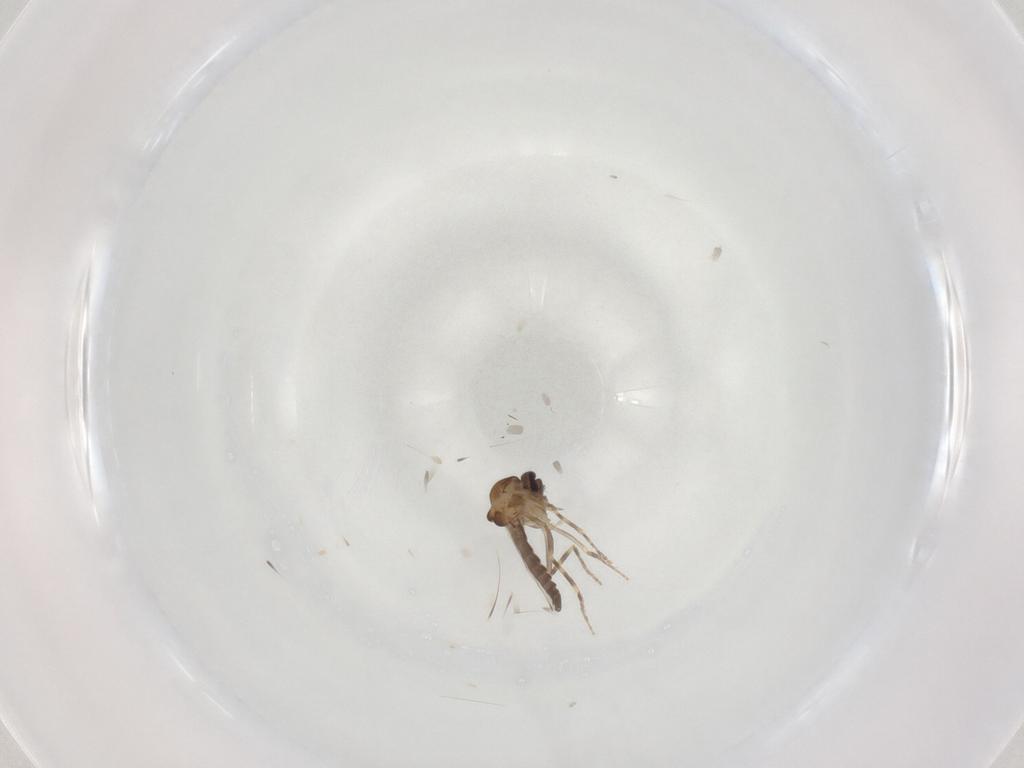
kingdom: Animalia
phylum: Arthropoda
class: Insecta
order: Diptera
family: Ceratopogonidae
